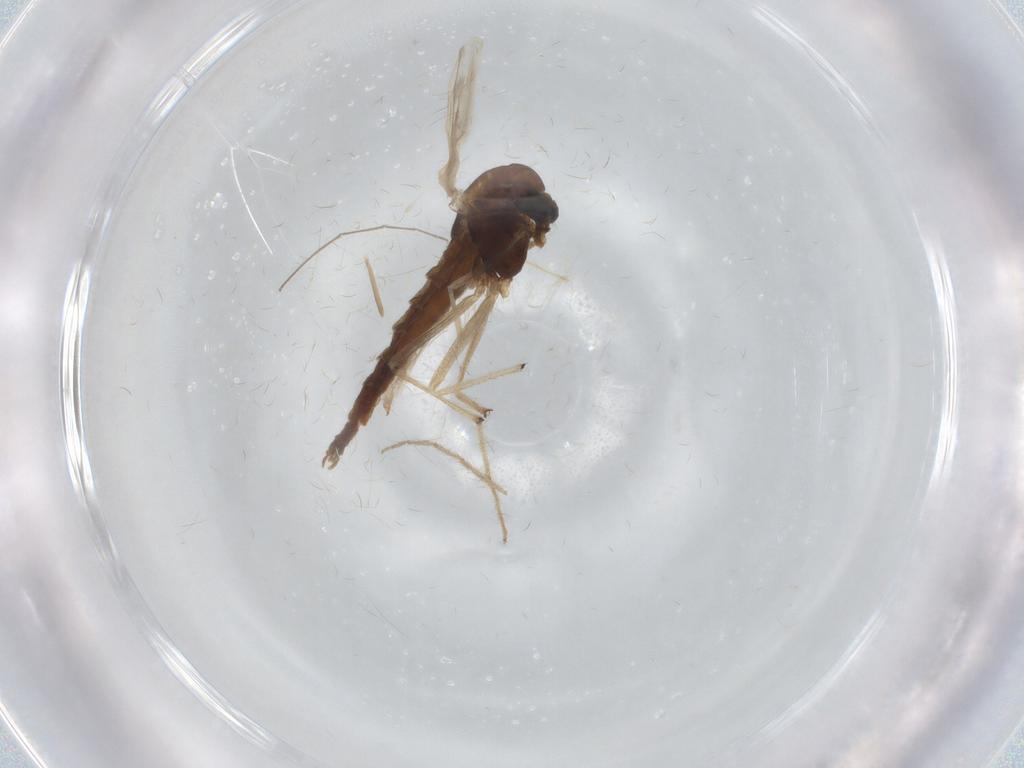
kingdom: Animalia
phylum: Arthropoda
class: Insecta
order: Diptera
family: Chironomidae
